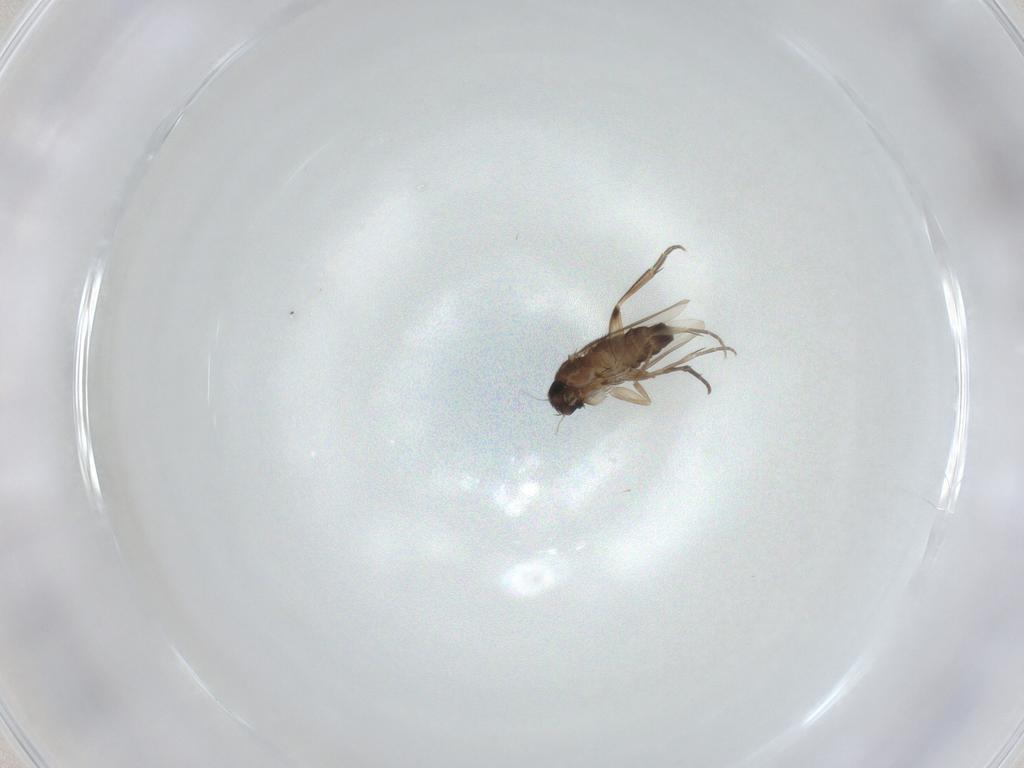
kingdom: Animalia
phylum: Arthropoda
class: Insecta
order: Diptera
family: Phoridae
